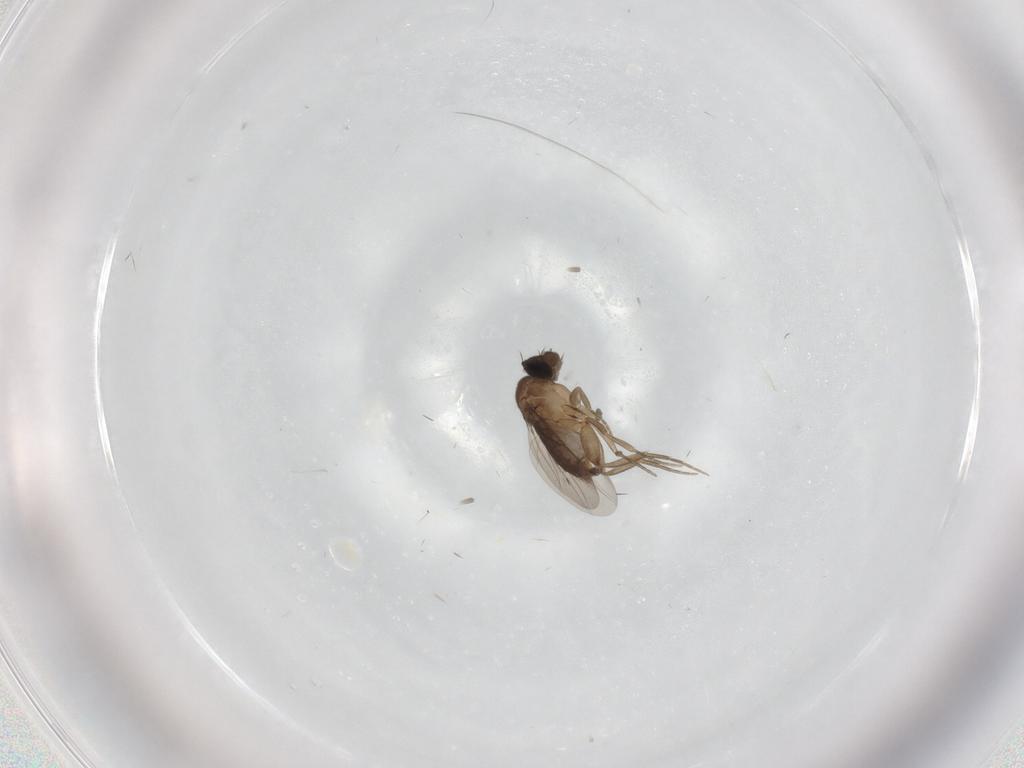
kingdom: Animalia
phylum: Arthropoda
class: Insecta
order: Diptera
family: Phoridae
